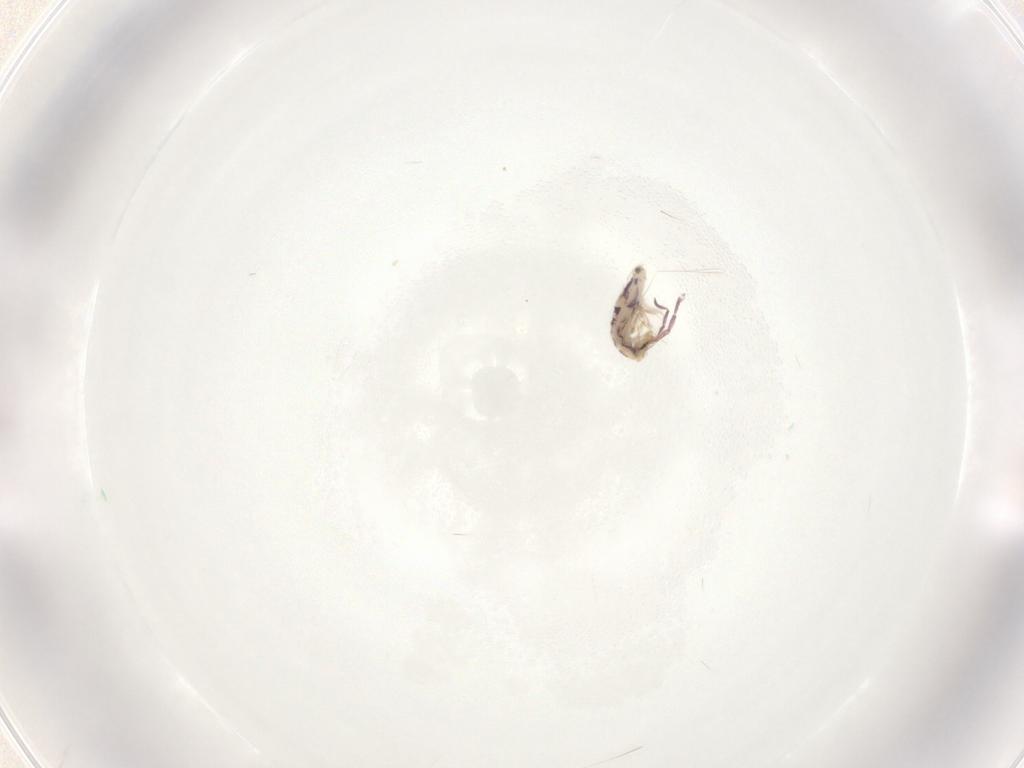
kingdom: Animalia
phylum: Arthropoda
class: Collembola
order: Entomobryomorpha
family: Entomobryidae
